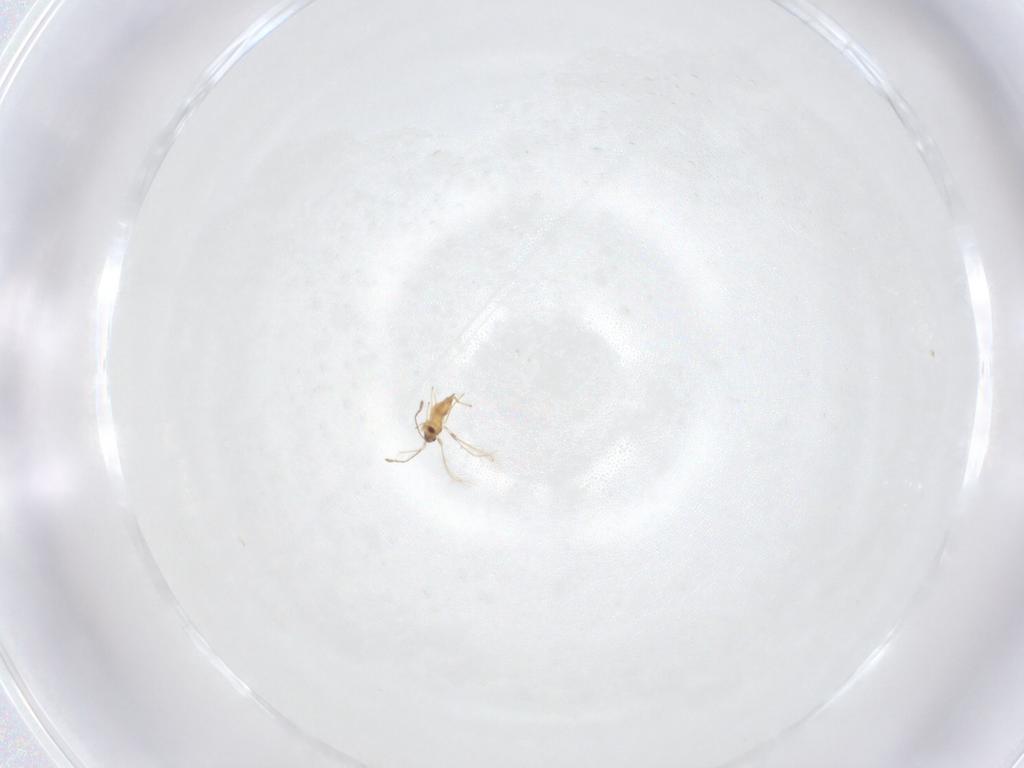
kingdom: Animalia
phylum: Arthropoda
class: Insecta
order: Hymenoptera
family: Mymaridae
